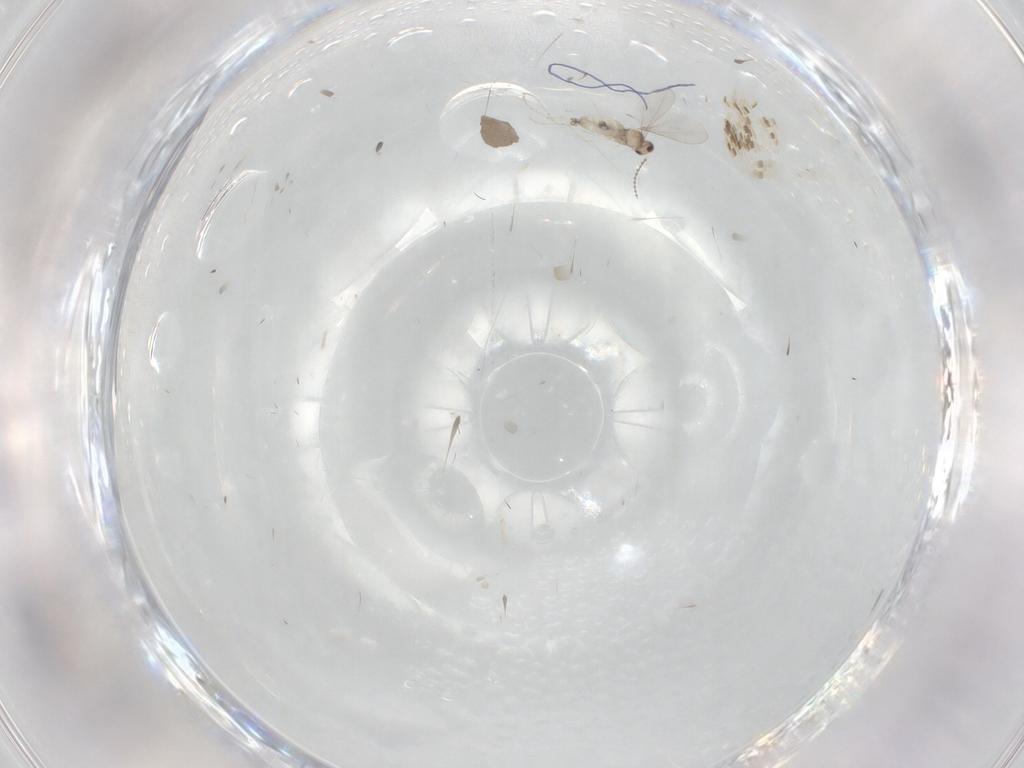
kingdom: Animalia
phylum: Arthropoda
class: Insecta
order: Diptera
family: Cecidomyiidae
